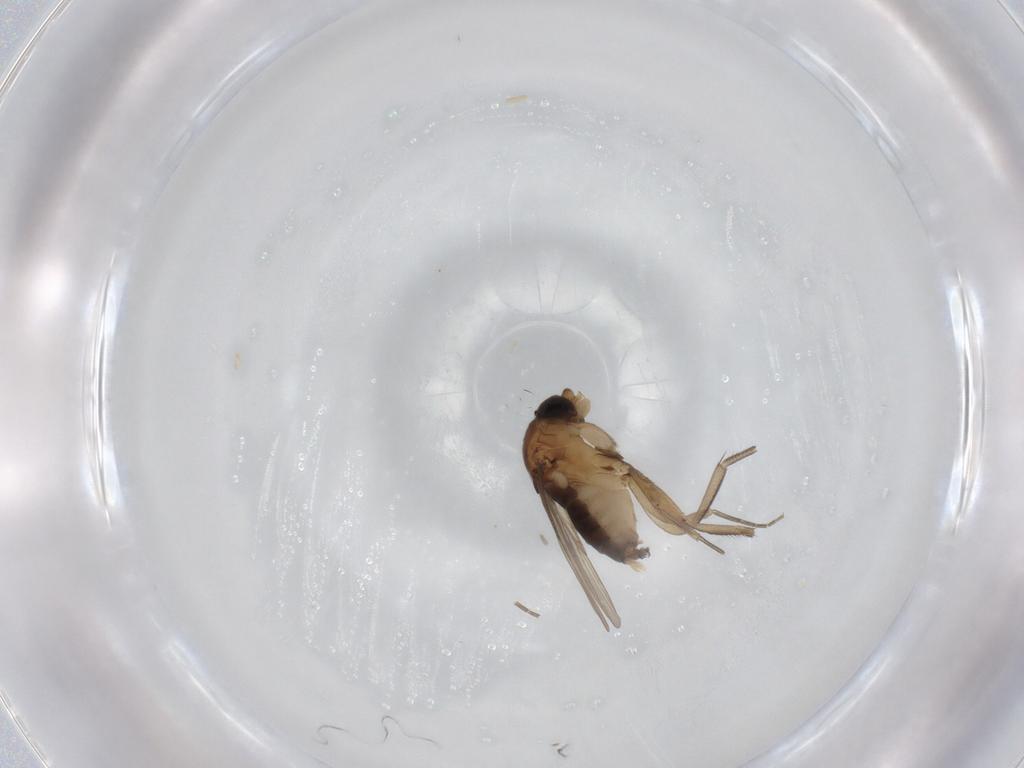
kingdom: Animalia
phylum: Arthropoda
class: Insecta
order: Diptera
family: Phoridae
